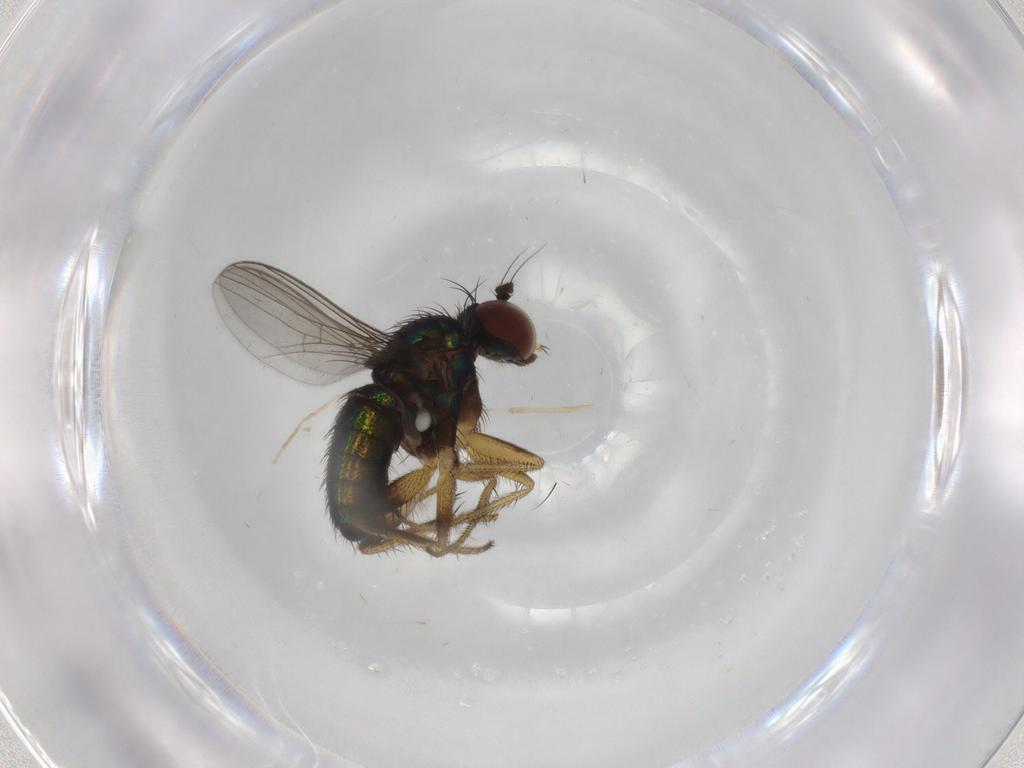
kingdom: Animalia
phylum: Arthropoda
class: Insecta
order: Diptera
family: Dolichopodidae
